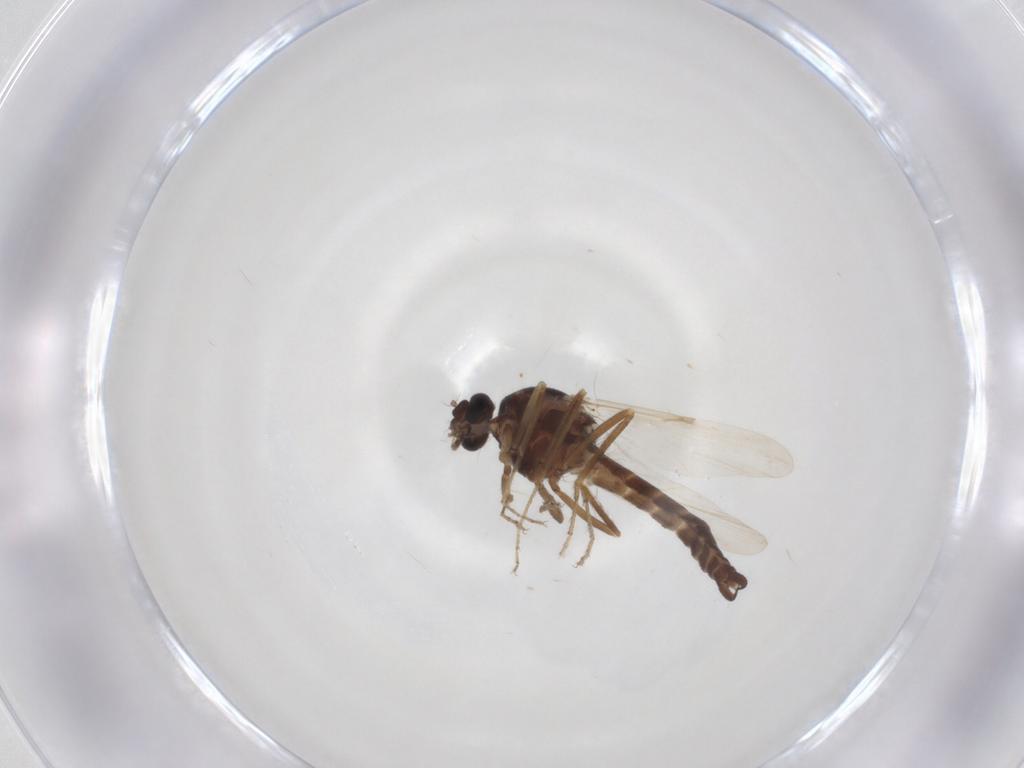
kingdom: Animalia
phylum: Arthropoda
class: Insecta
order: Diptera
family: Ceratopogonidae
